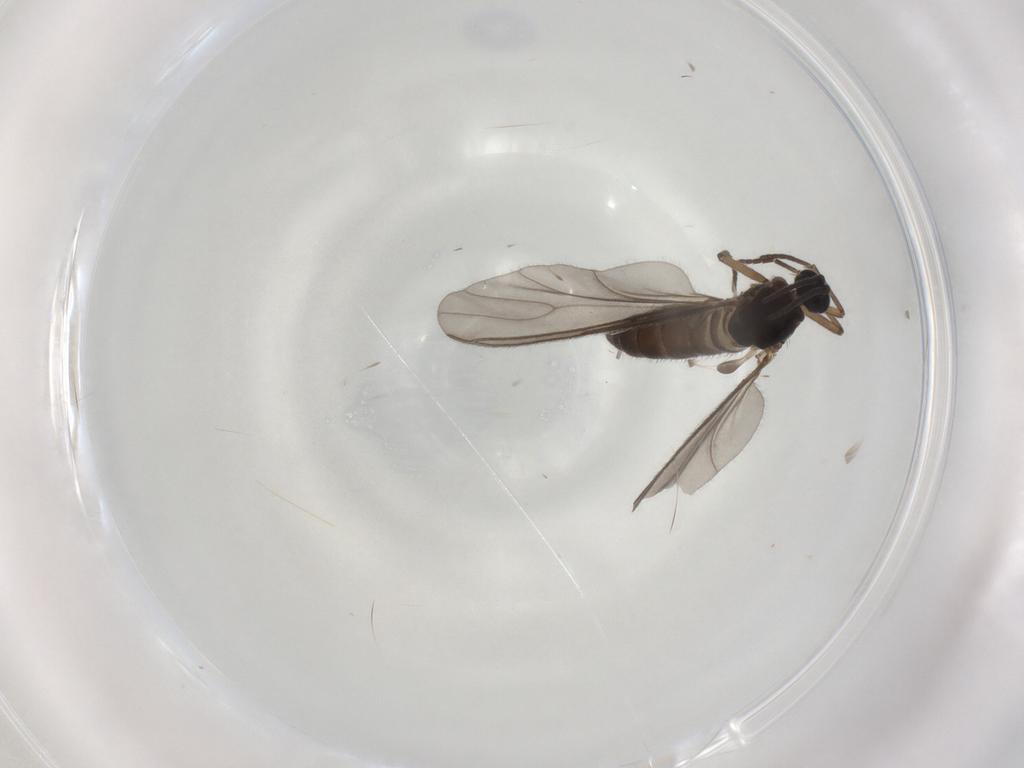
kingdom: Animalia
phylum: Arthropoda
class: Insecta
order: Diptera
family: Sciaridae
